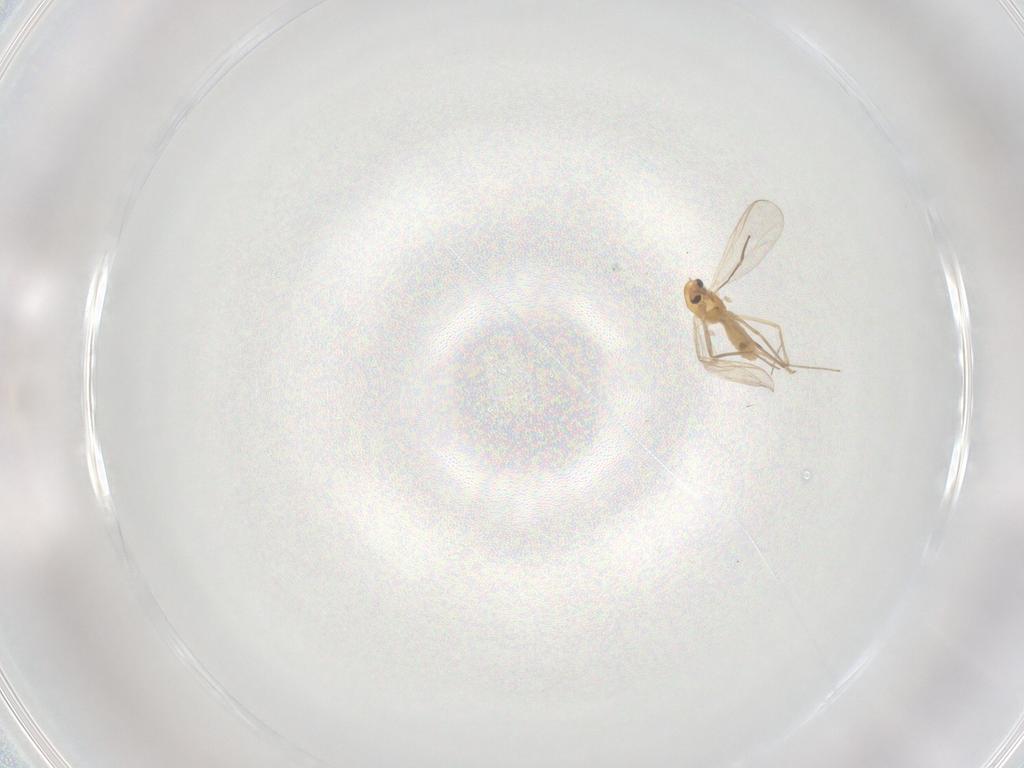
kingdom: Animalia
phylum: Arthropoda
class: Insecta
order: Diptera
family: Chironomidae
